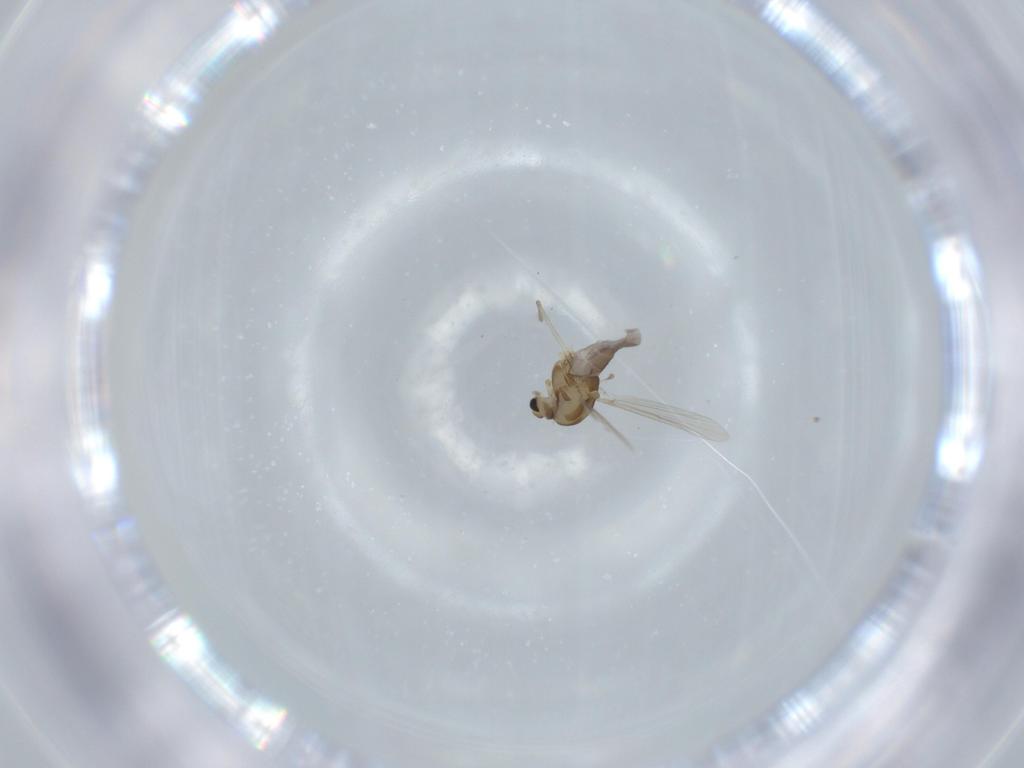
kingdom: Animalia
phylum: Arthropoda
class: Insecta
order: Diptera
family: Chironomidae
